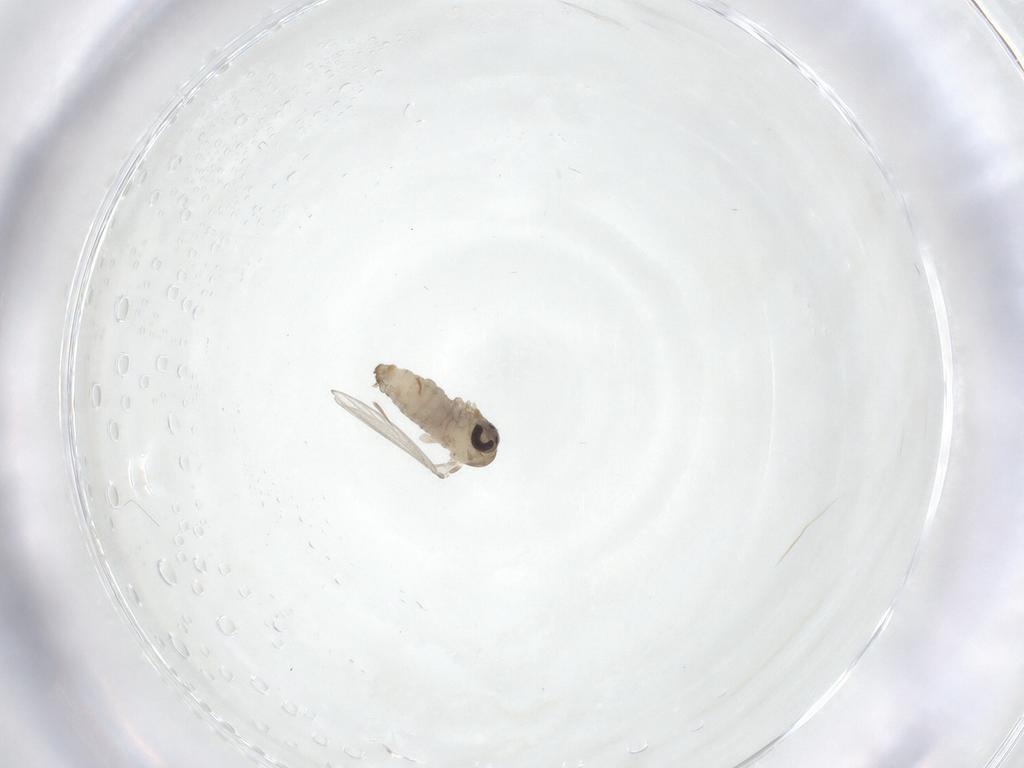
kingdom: Animalia
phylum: Arthropoda
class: Insecta
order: Diptera
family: Psychodidae
